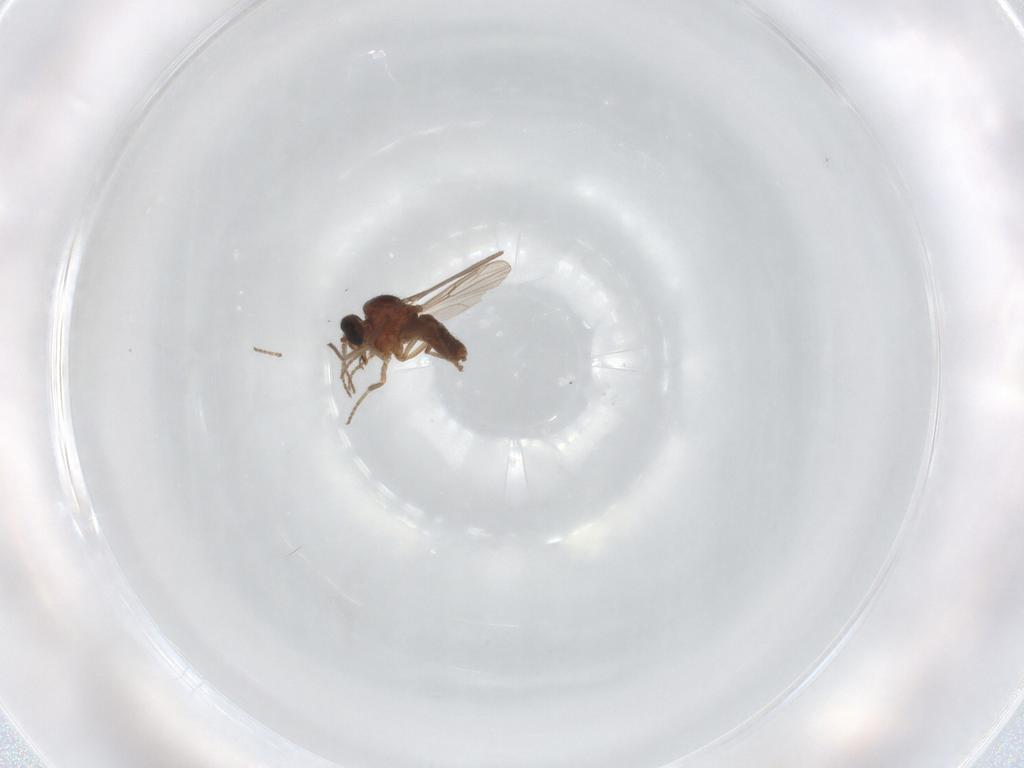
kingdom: Animalia
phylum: Arthropoda
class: Insecta
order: Diptera
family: Ceratopogonidae
